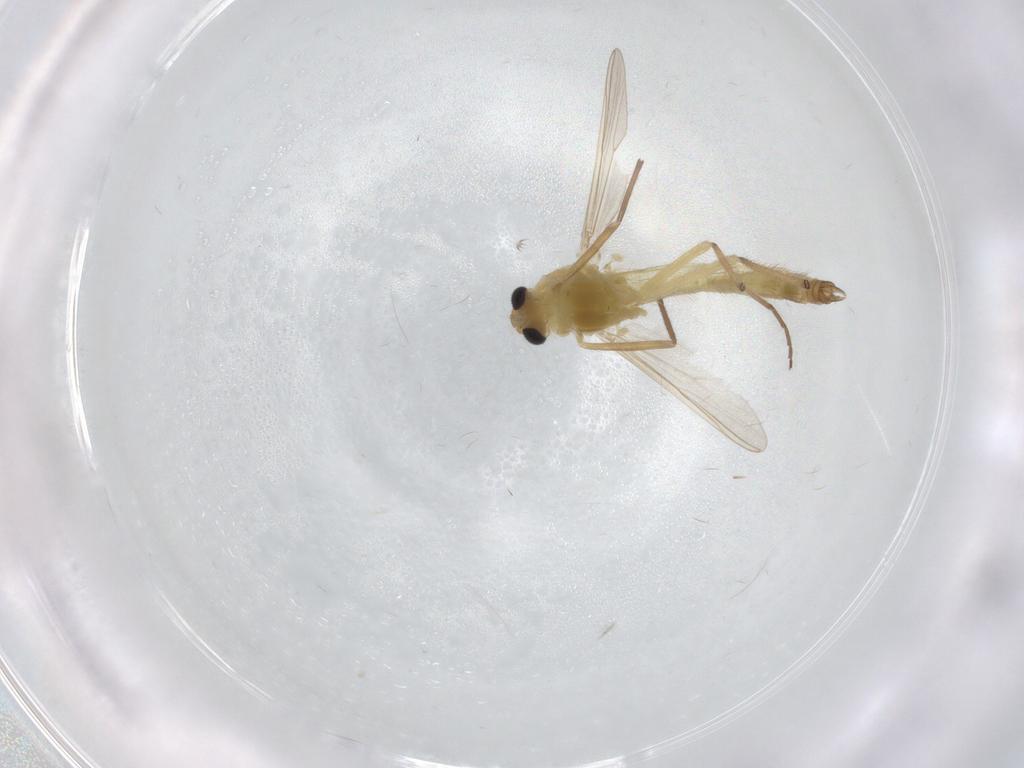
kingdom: Animalia
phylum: Arthropoda
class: Insecta
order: Diptera
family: Chironomidae
